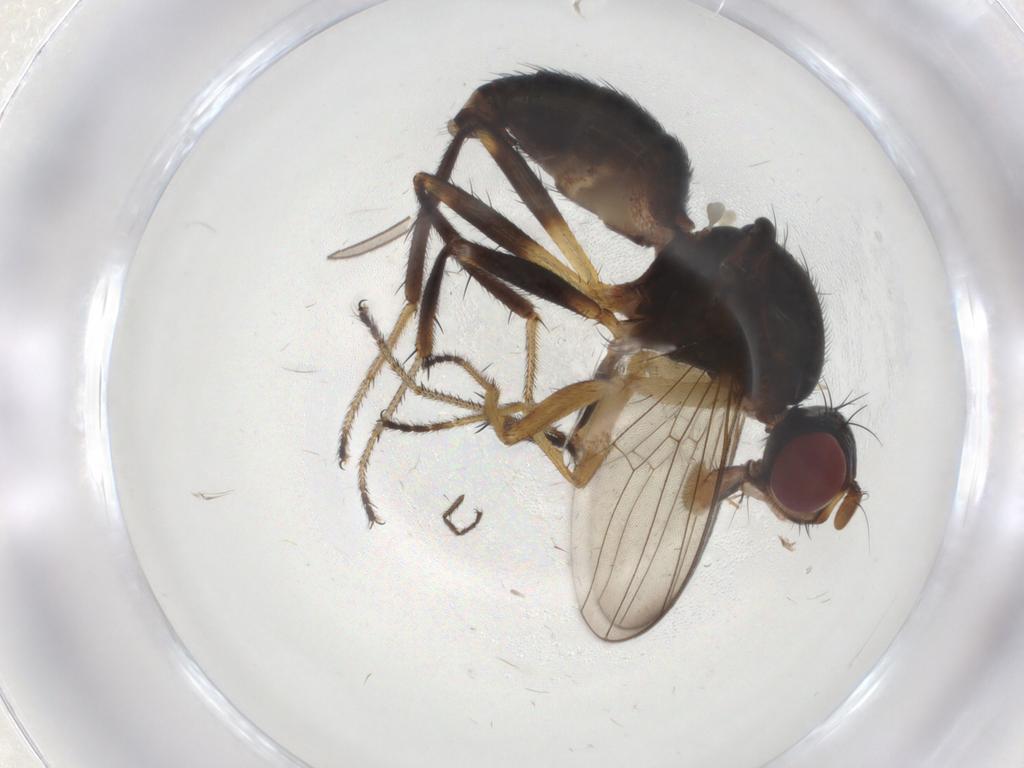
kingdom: Animalia
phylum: Arthropoda
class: Insecta
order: Diptera
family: Sepsidae
